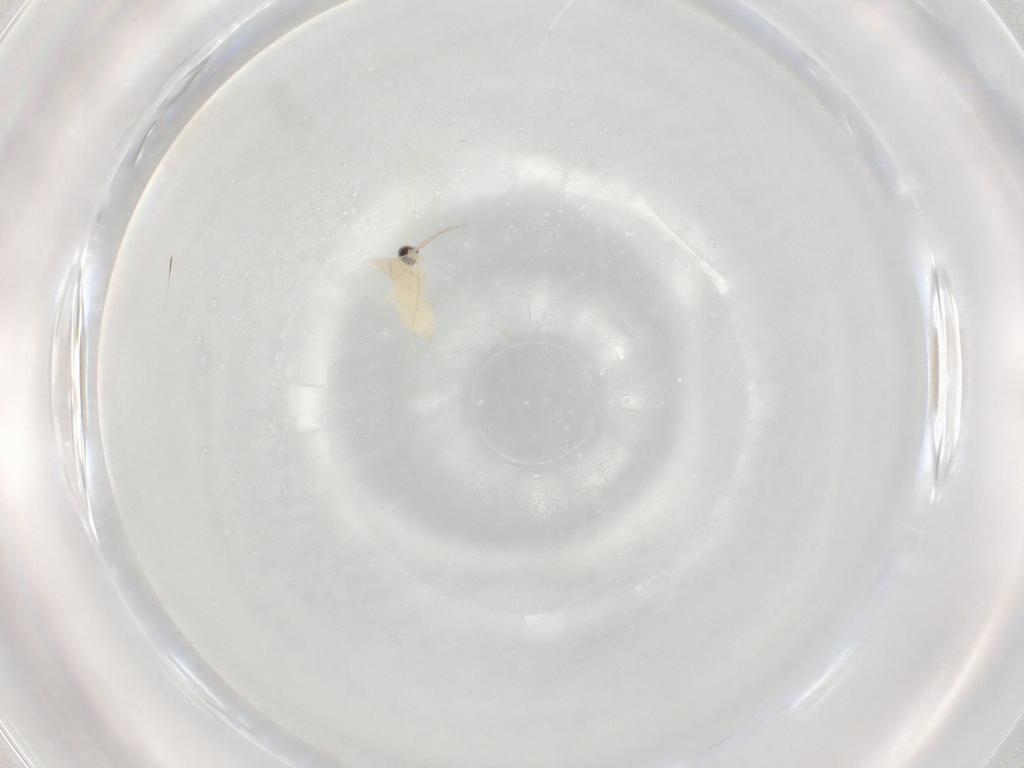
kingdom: Animalia
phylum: Arthropoda
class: Insecta
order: Diptera
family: Cecidomyiidae
